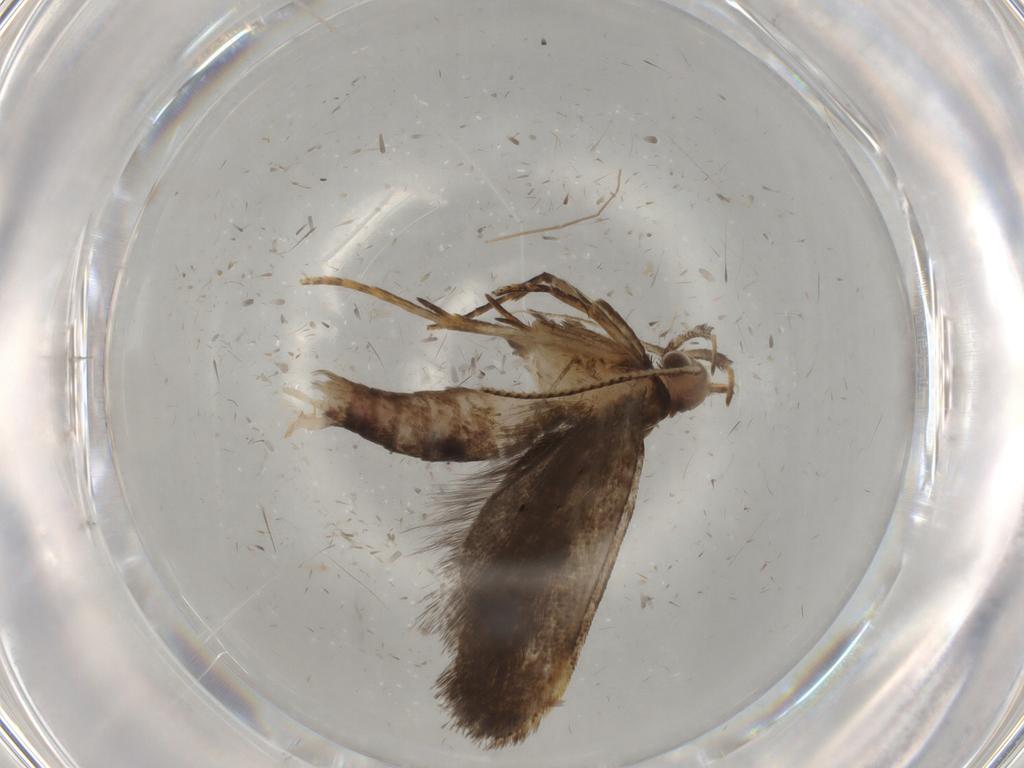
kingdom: Animalia
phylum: Arthropoda
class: Insecta
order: Lepidoptera
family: Gelechiidae
